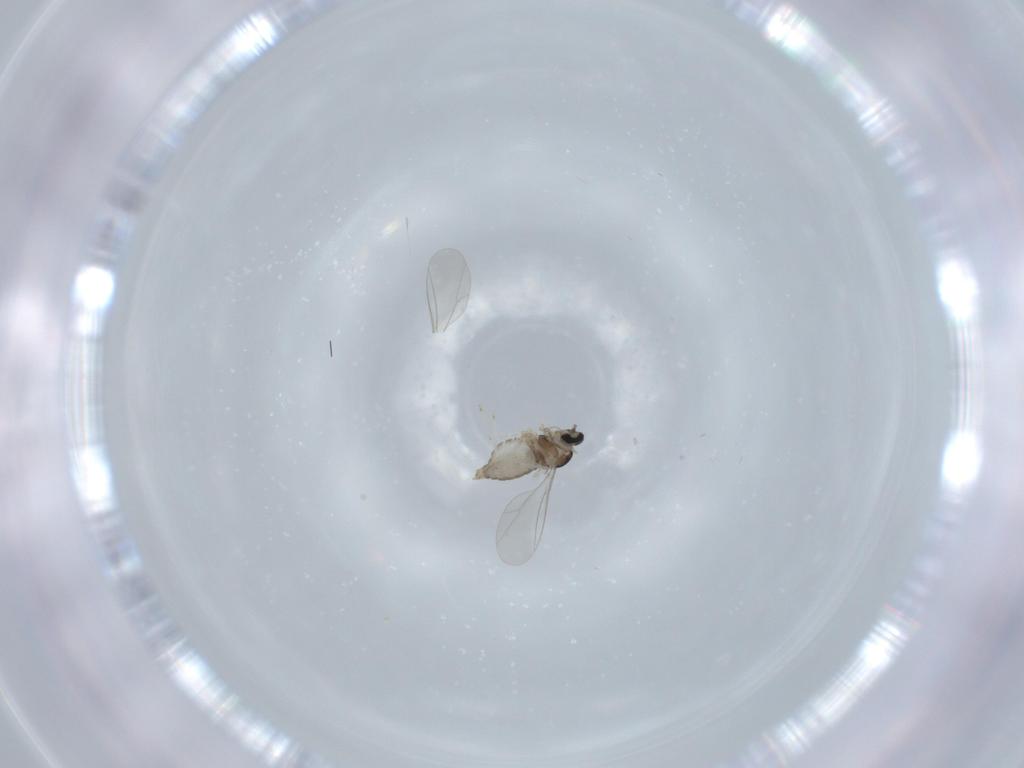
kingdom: Animalia
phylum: Arthropoda
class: Insecta
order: Diptera
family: Cecidomyiidae
